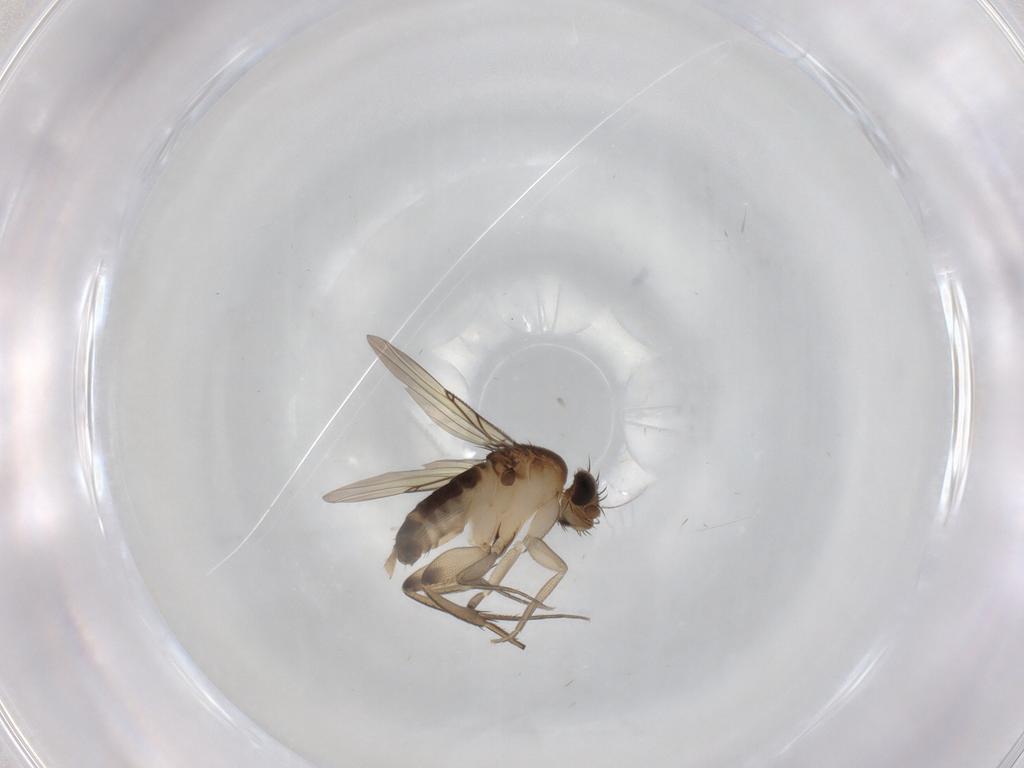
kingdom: Animalia
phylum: Arthropoda
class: Insecta
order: Diptera
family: Phoridae
